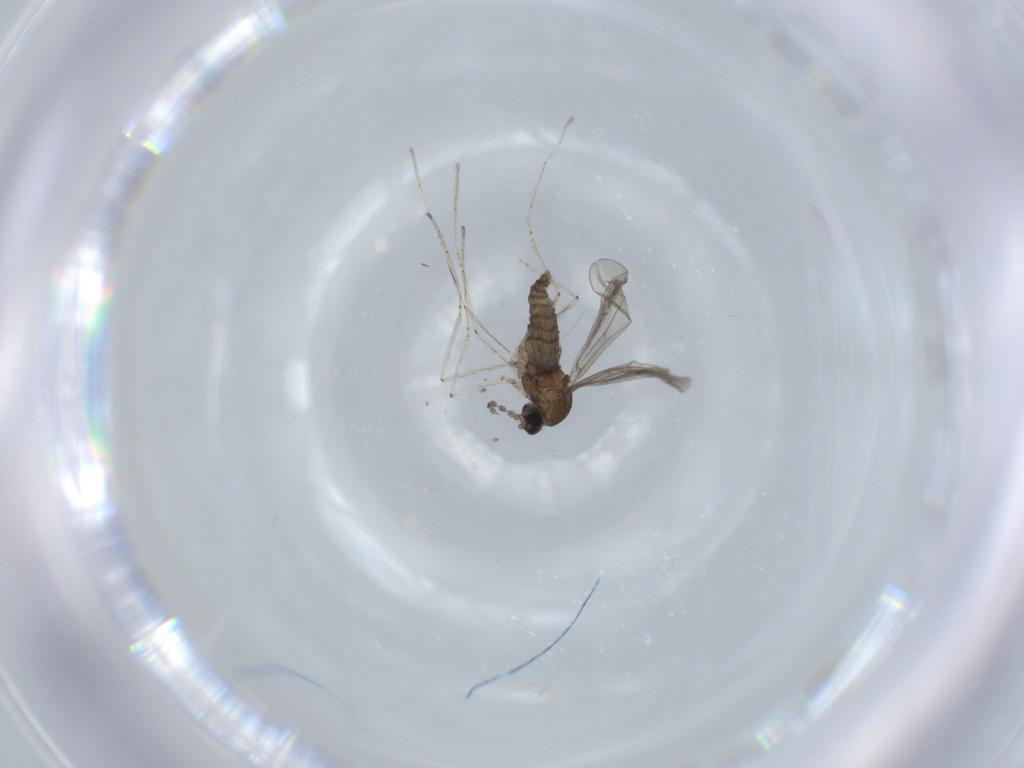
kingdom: Animalia
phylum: Arthropoda
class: Insecta
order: Diptera
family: Cecidomyiidae
